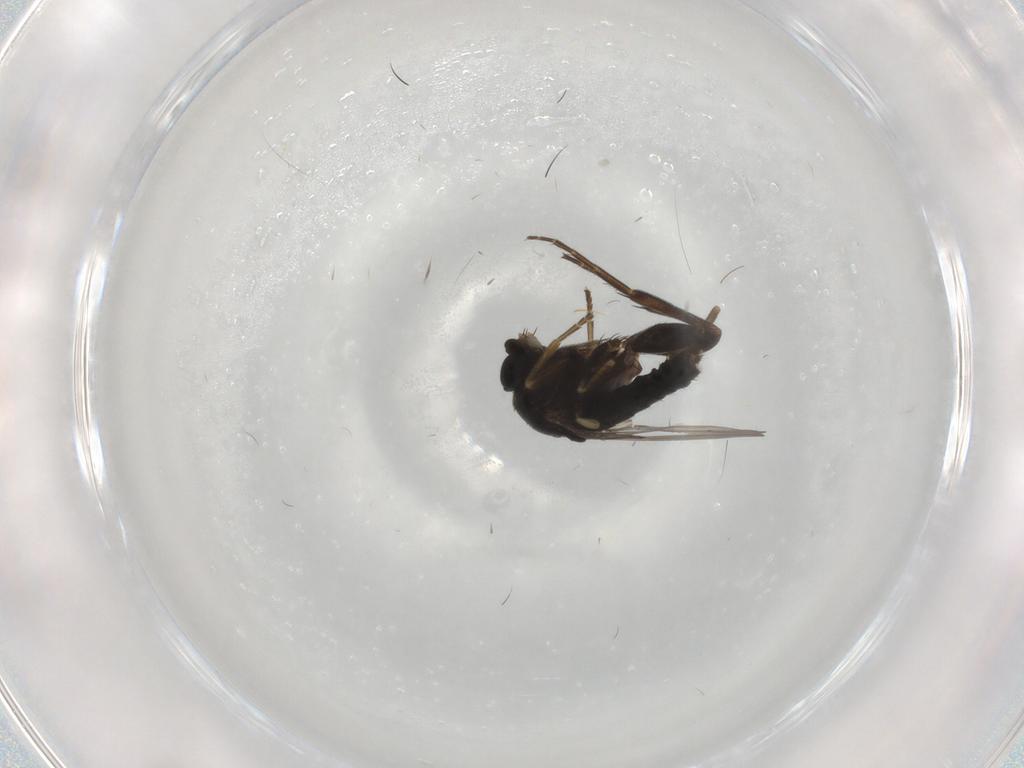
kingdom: Animalia
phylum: Arthropoda
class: Insecta
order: Diptera
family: Phoridae
